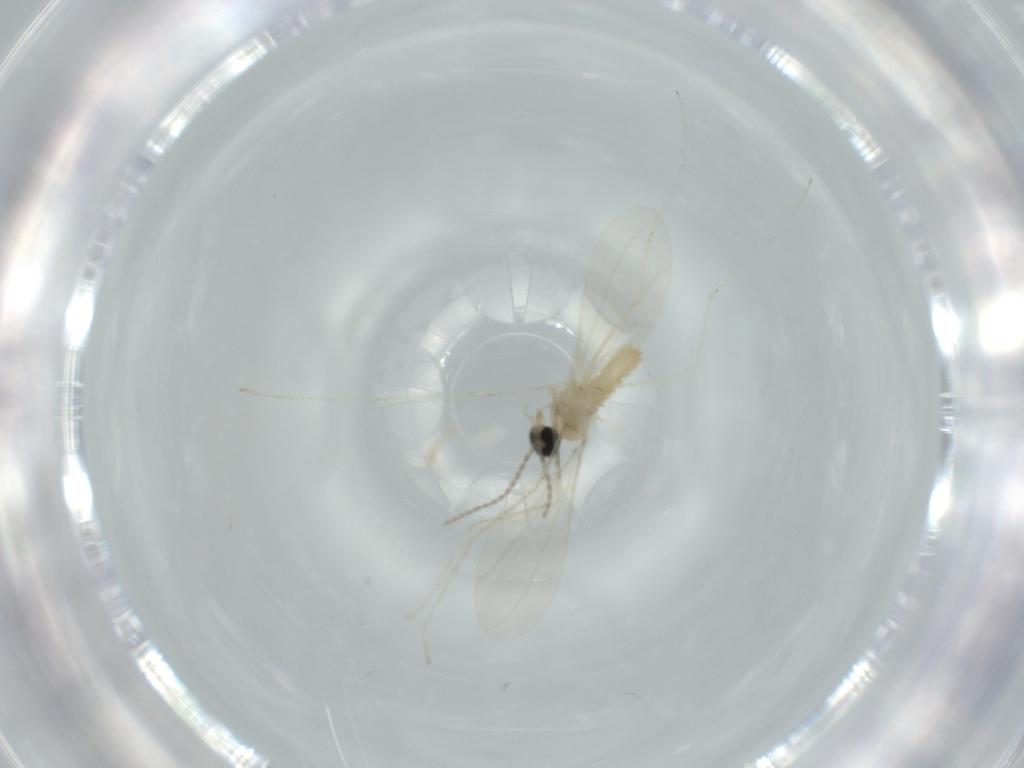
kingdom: Animalia
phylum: Arthropoda
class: Insecta
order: Diptera
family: Cecidomyiidae
